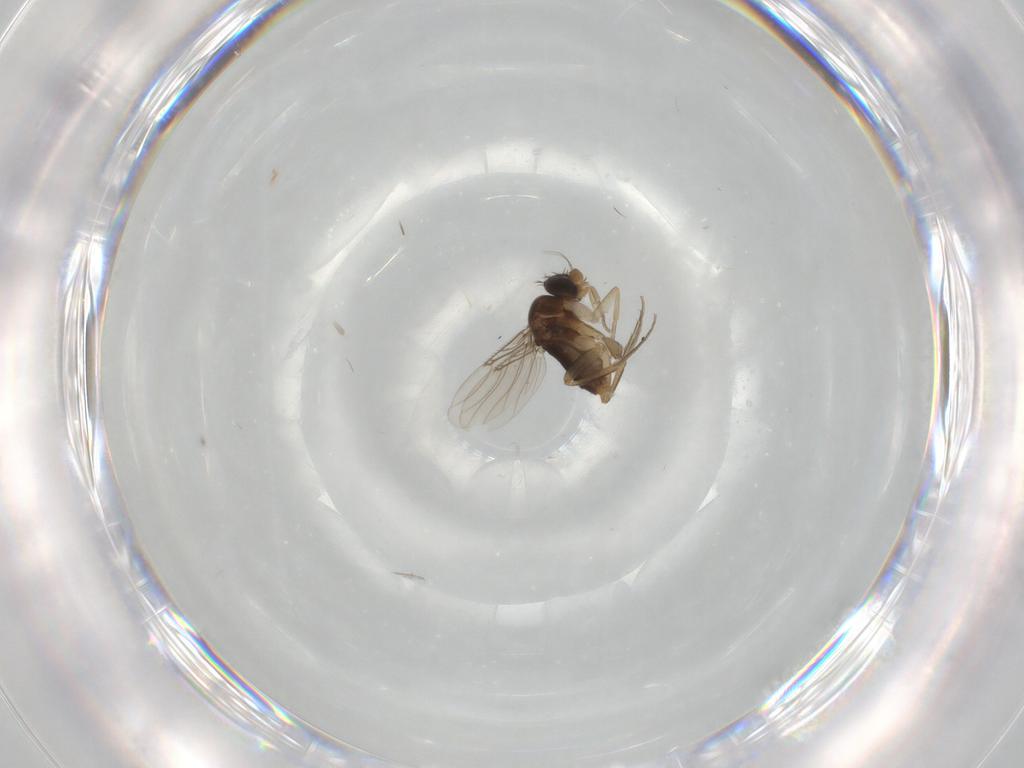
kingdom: Animalia
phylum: Arthropoda
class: Insecta
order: Diptera
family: Phoridae
